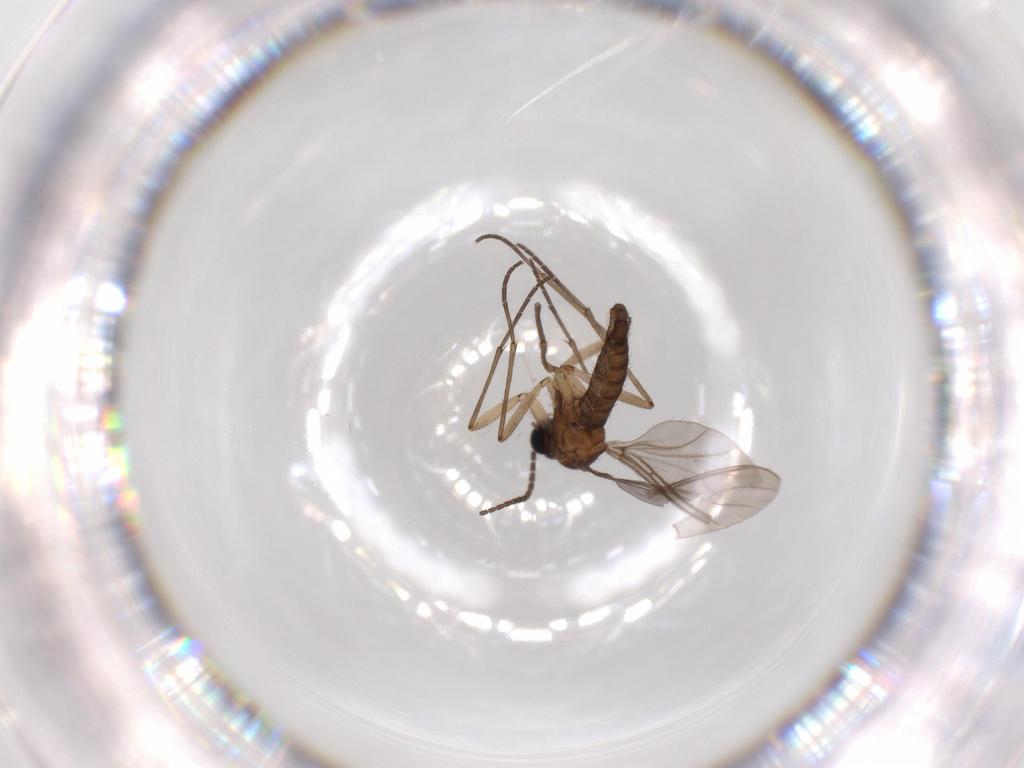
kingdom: Animalia
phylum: Arthropoda
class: Insecta
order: Diptera
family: Sciaridae
